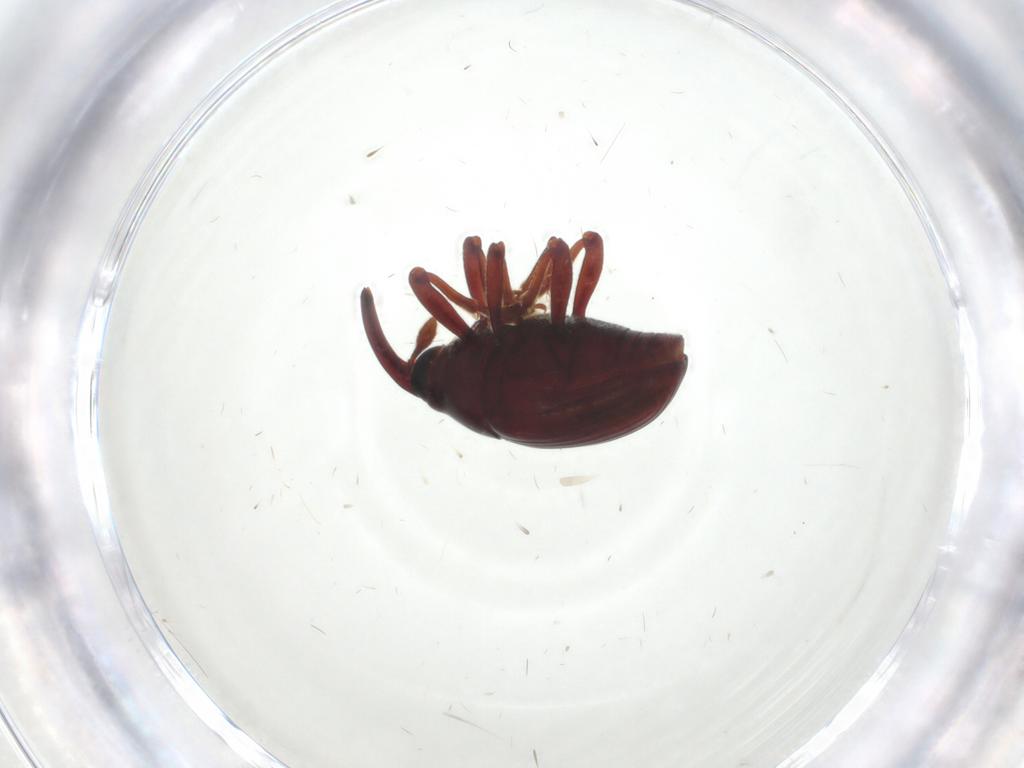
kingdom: Animalia
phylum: Arthropoda
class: Insecta
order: Coleoptera
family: Curculionidae
